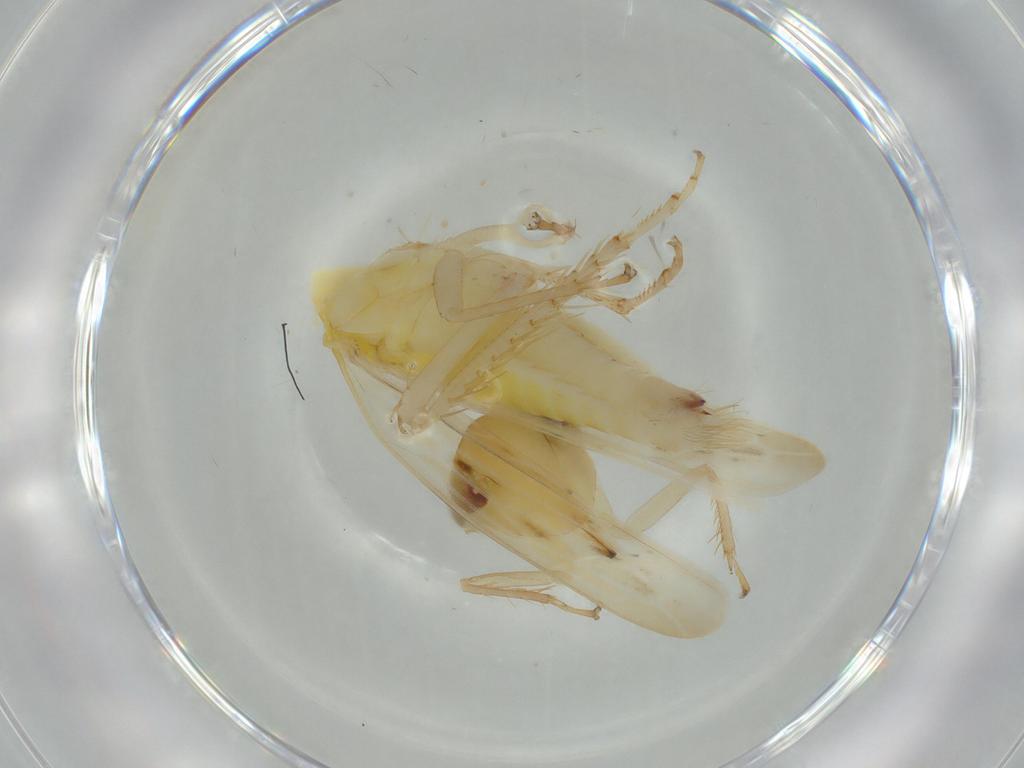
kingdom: Animalia
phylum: Arthropoda
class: Insecta
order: Hemiptera
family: Cicadellidae
